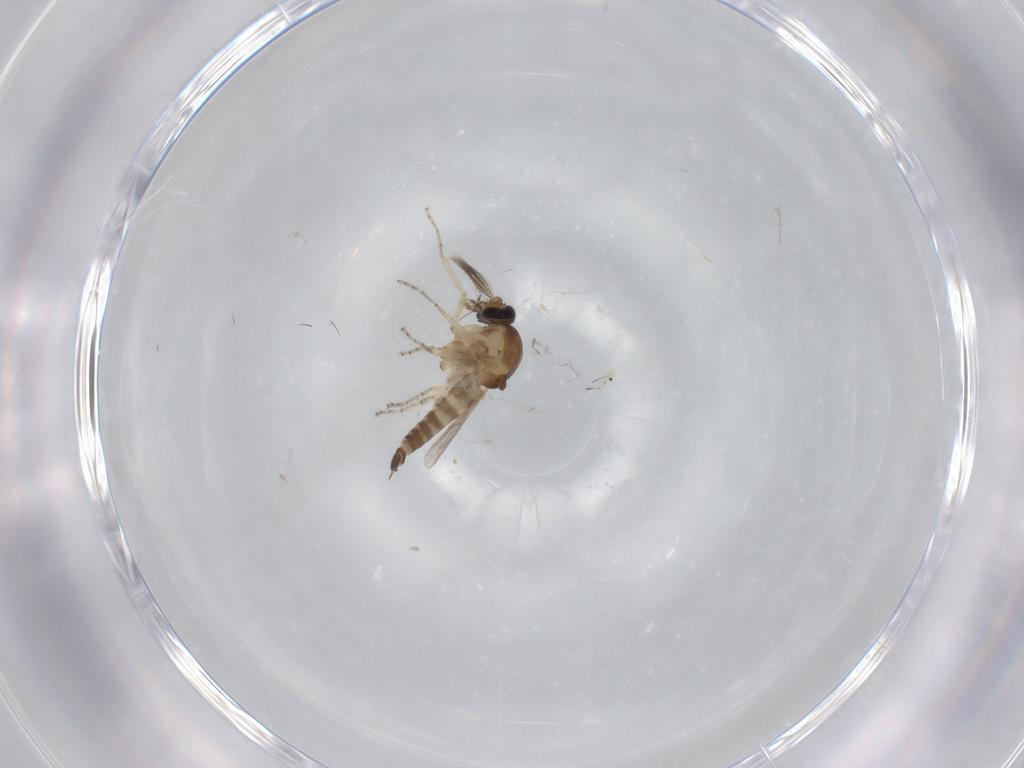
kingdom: Animalia
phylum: Arthropoda
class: Insecta
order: Diptera
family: Ceratopogonidae
